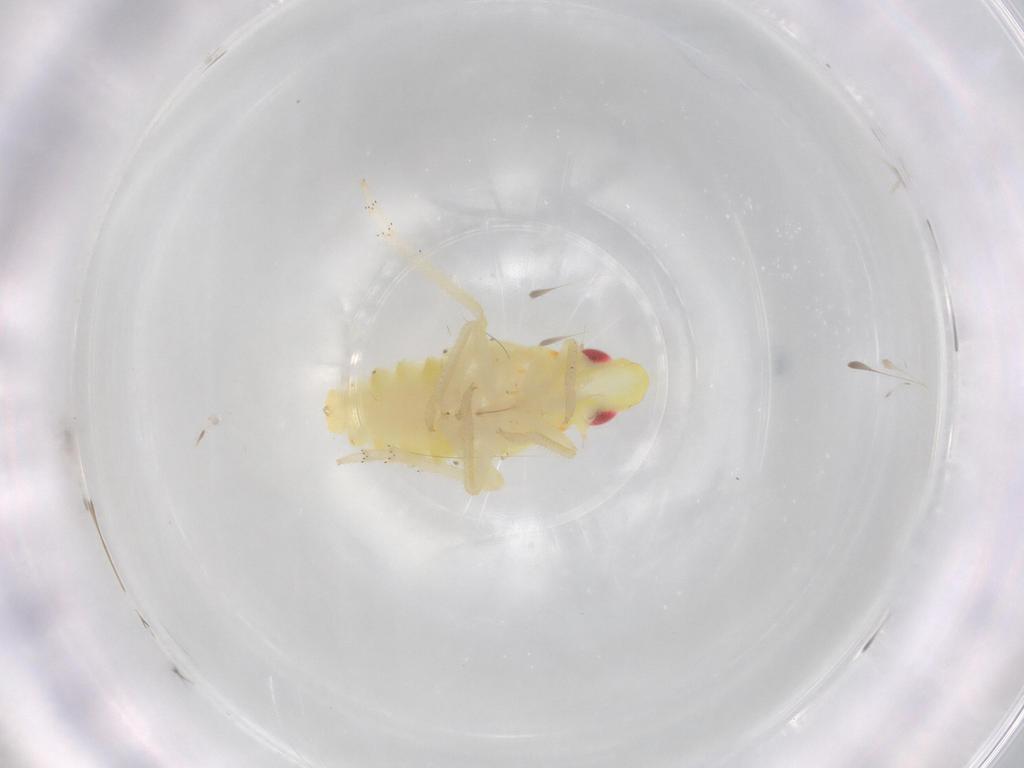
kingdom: Animalia
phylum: Arthropoda
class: Insecta
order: Hemiptera
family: Tropiduchidae
